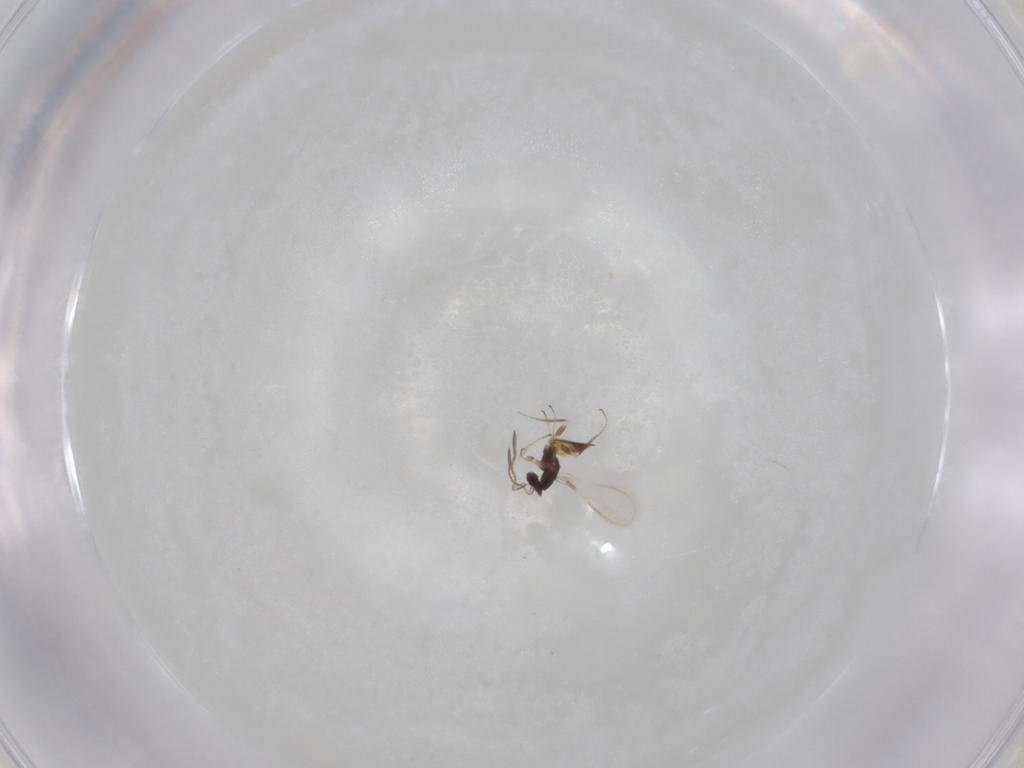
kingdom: Animalia
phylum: Arthropoda
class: Insecta
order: Hymenoptera
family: Mymaridae
